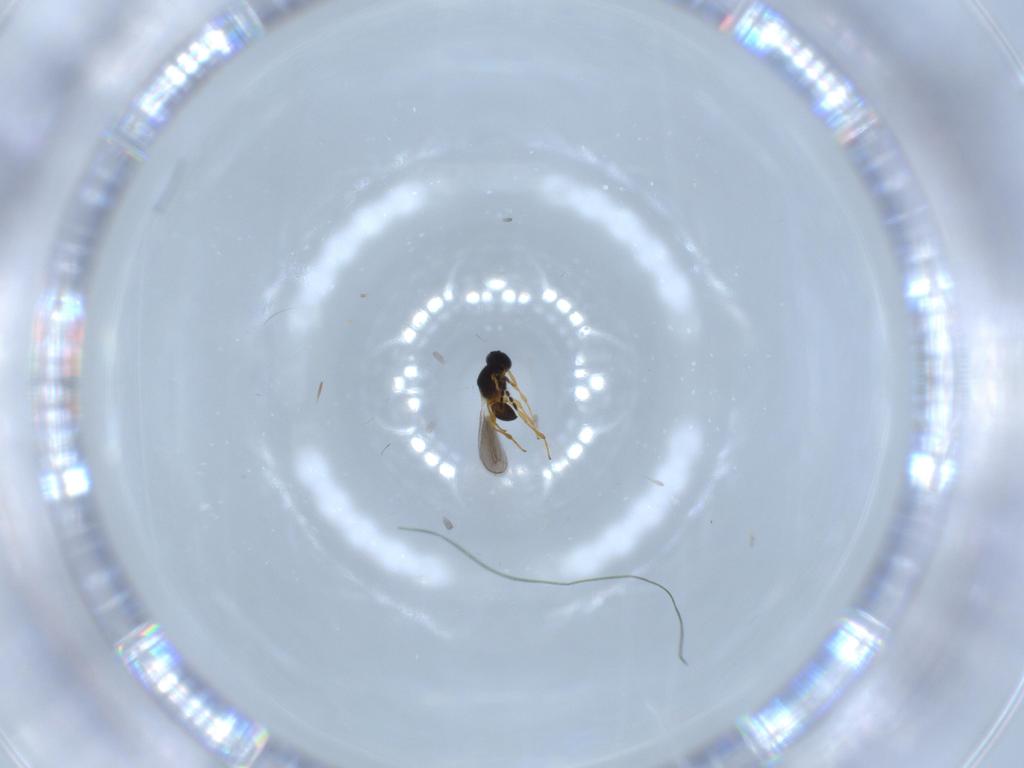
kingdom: Animalia
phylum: Arthropoda
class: Insecta
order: Hymenoptera
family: Platygastridae
